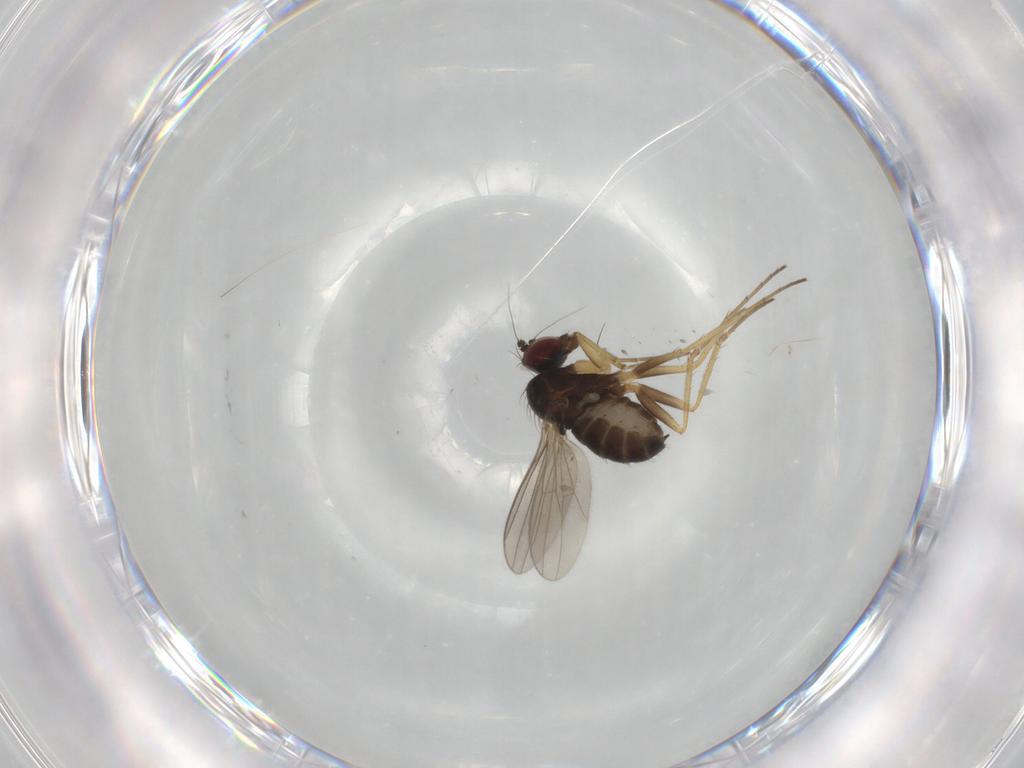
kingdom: Animalia
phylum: Arthropoda
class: Insecta
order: Diptera
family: Dolichopodidae
